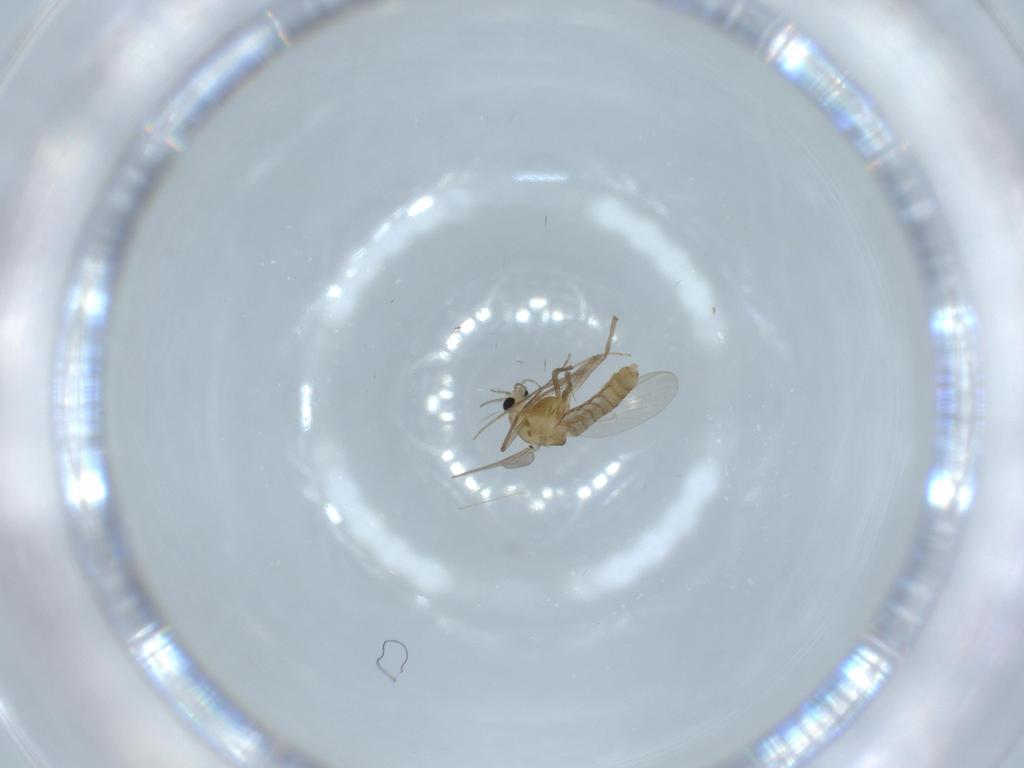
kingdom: Animalia
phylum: Arthropoda
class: Insecta
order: Diptera
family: Sciaridae
